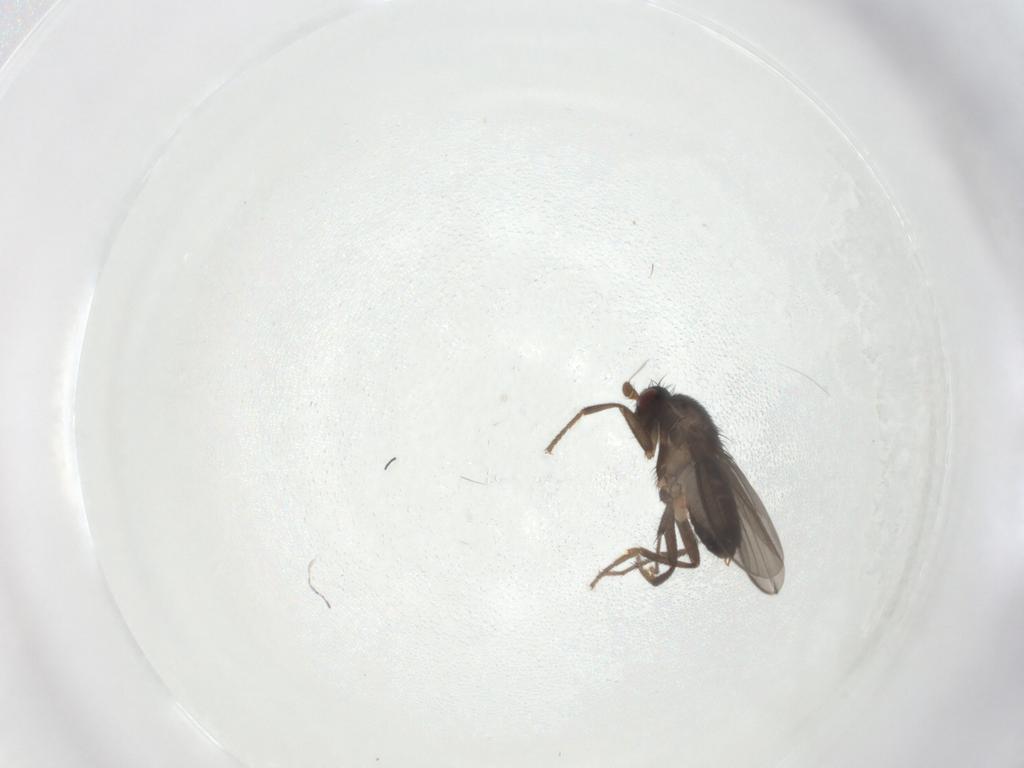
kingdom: Animalia
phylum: Arthropoda
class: Insecta
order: Diptera
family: Sphaeroceridae
